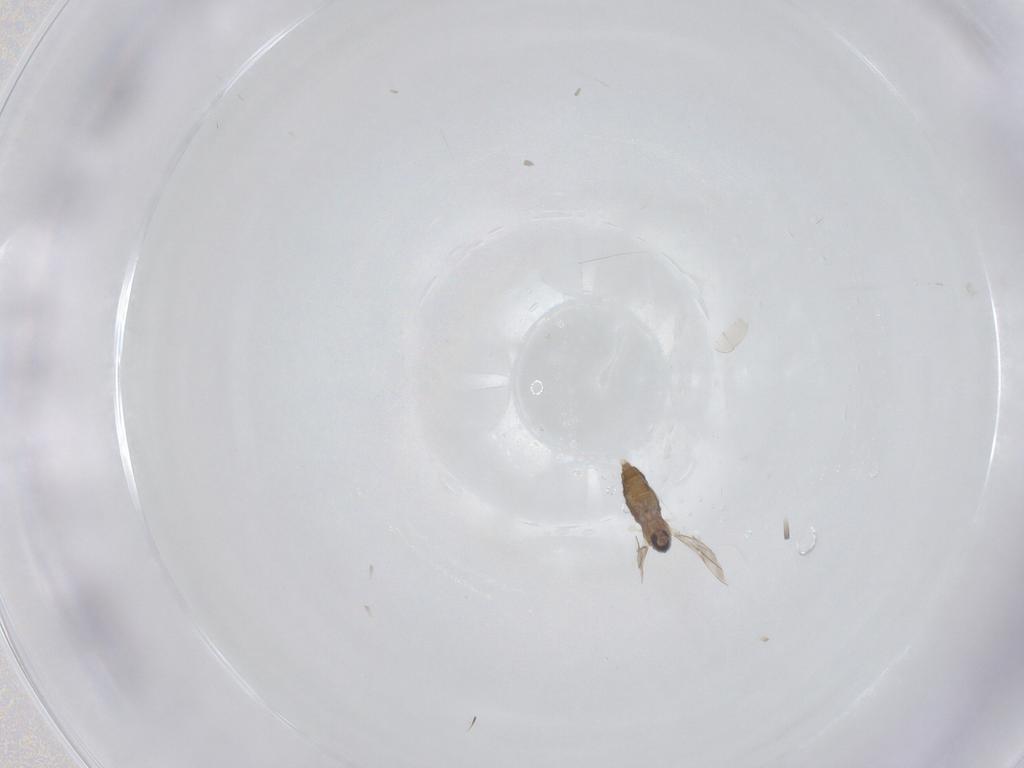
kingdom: Animalia
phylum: Arthropoda
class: Insecta
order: Diptera
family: Cecidomyiidae
